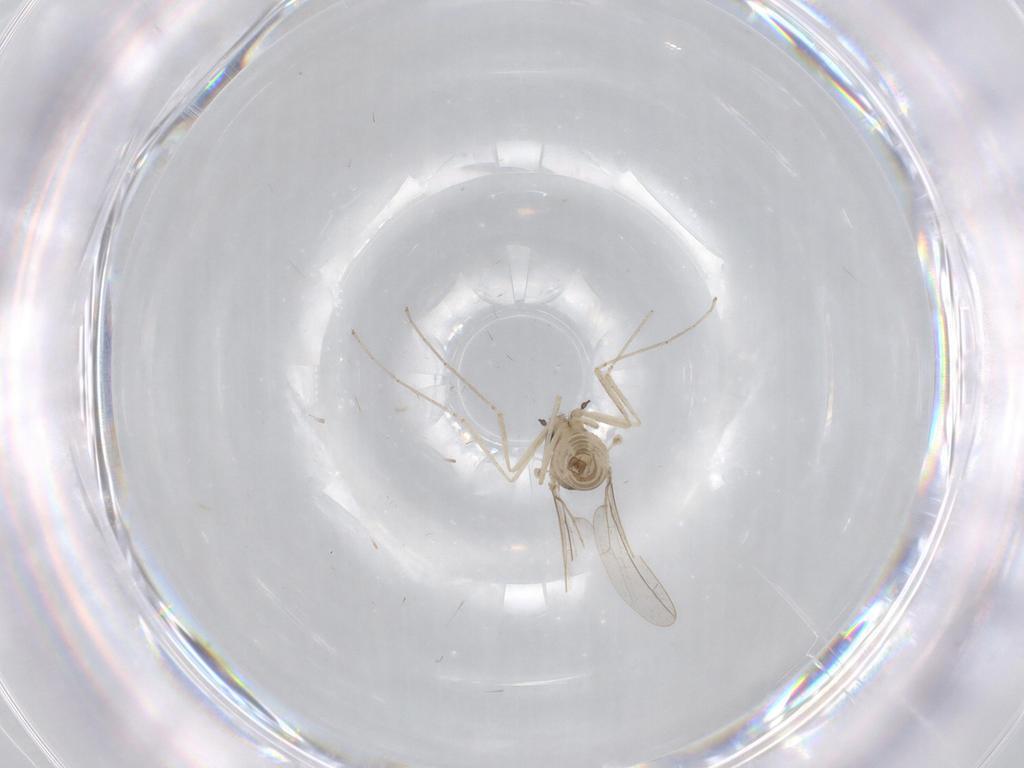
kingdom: Animalia
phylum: Arthropoda
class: Insecta
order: Diptera
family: Cecidomyiidae
